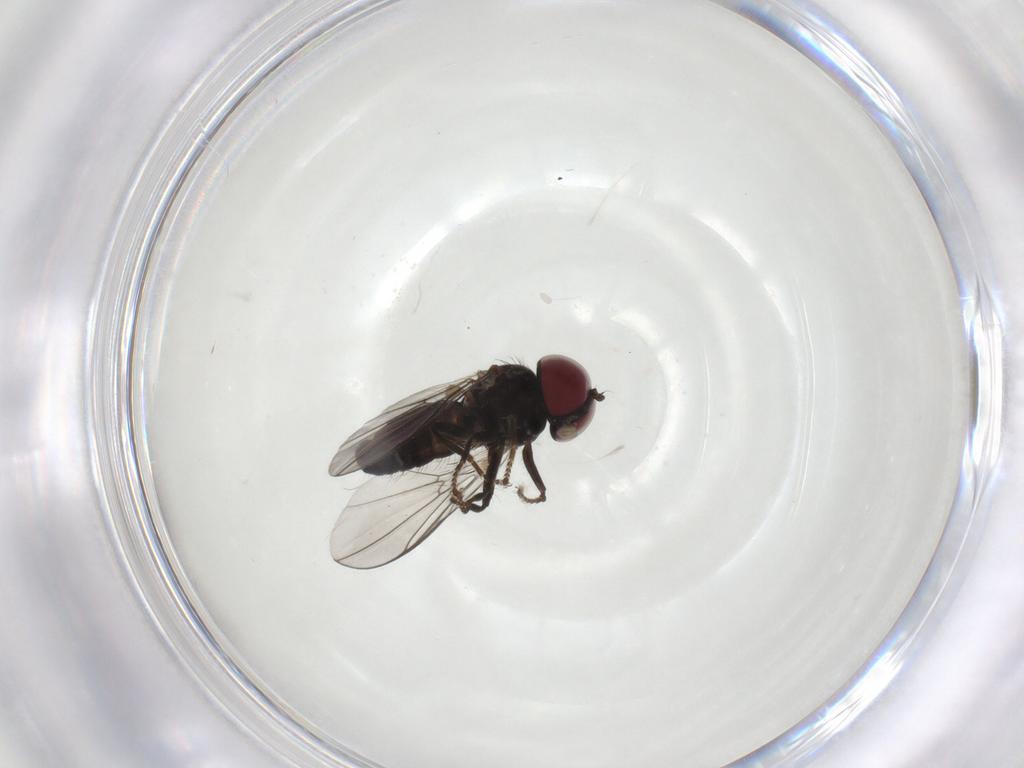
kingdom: Animalia
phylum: Arthropoda
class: Insecta
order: Diptera
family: Pipunculidae
